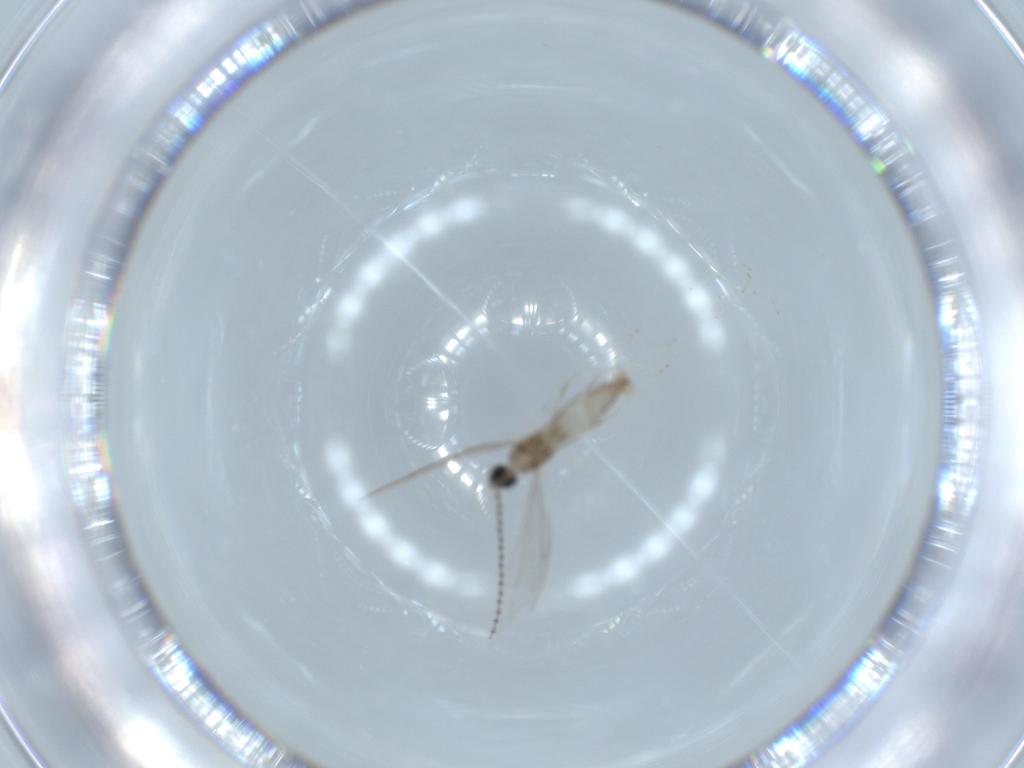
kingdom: Animalia
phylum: Arthropoda
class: Insecta
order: Diptera
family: Cecidomyiidae
